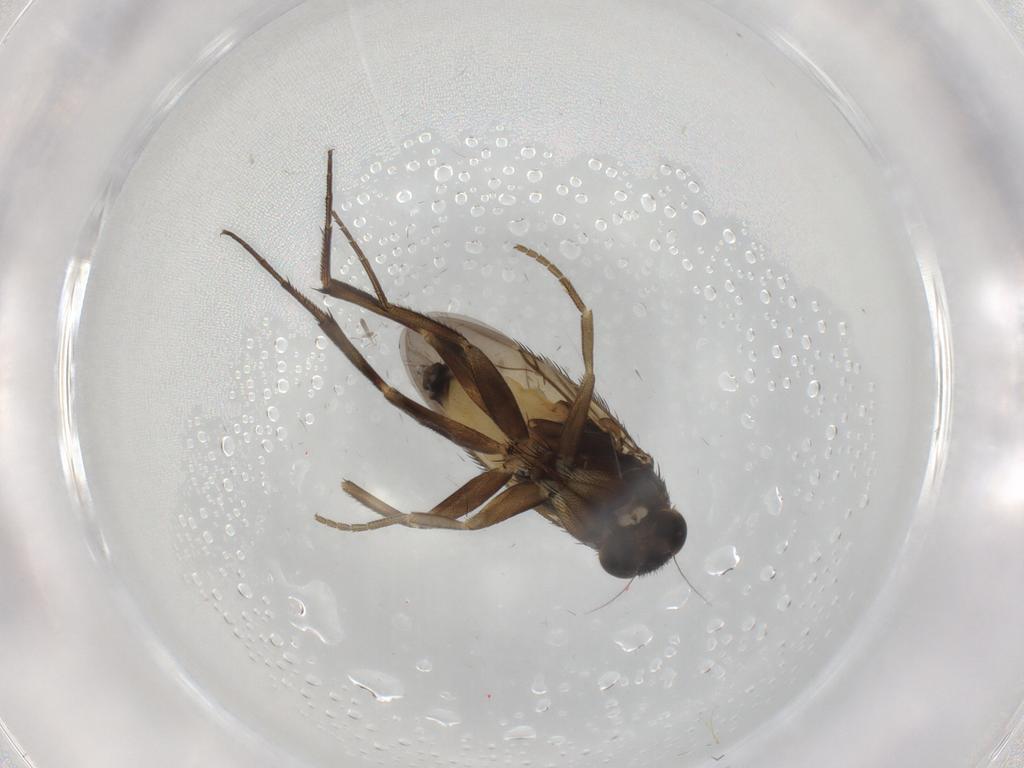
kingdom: Animalia
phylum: Arthropoda
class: Insecta
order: Diptera
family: Phoridae
